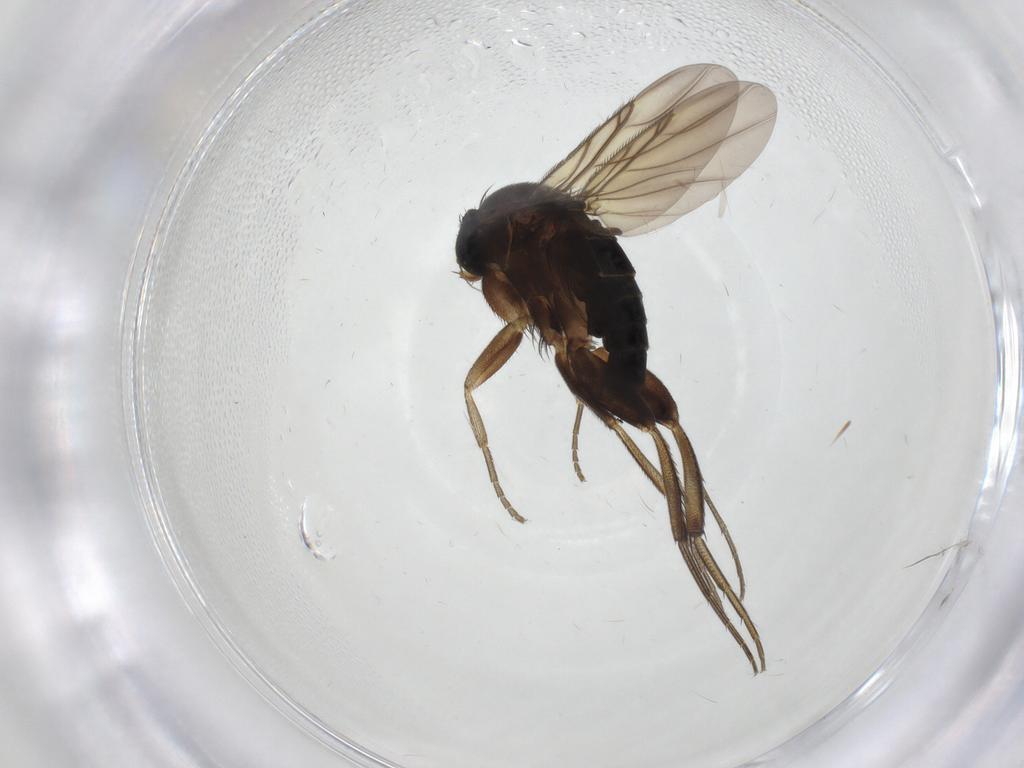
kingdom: Animalia
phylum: Arthropoda
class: Insecta
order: Diptera
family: Phoridae
